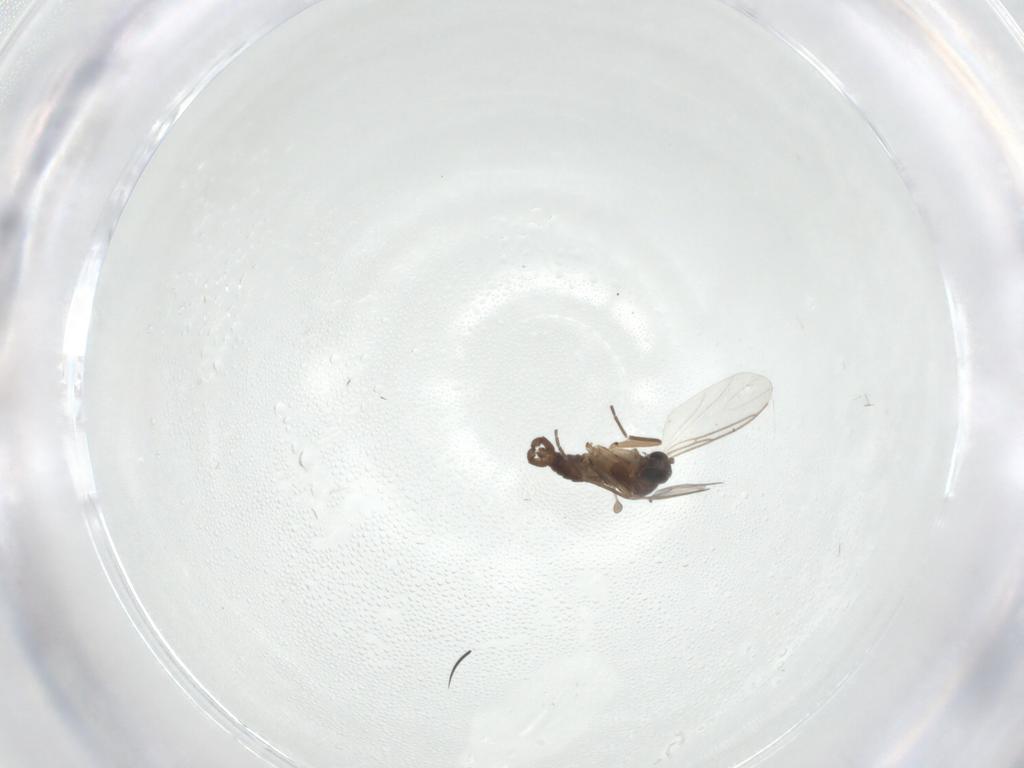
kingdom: Animalia
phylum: Arthropoda
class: Insecta
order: Diptera
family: Sciaridae
